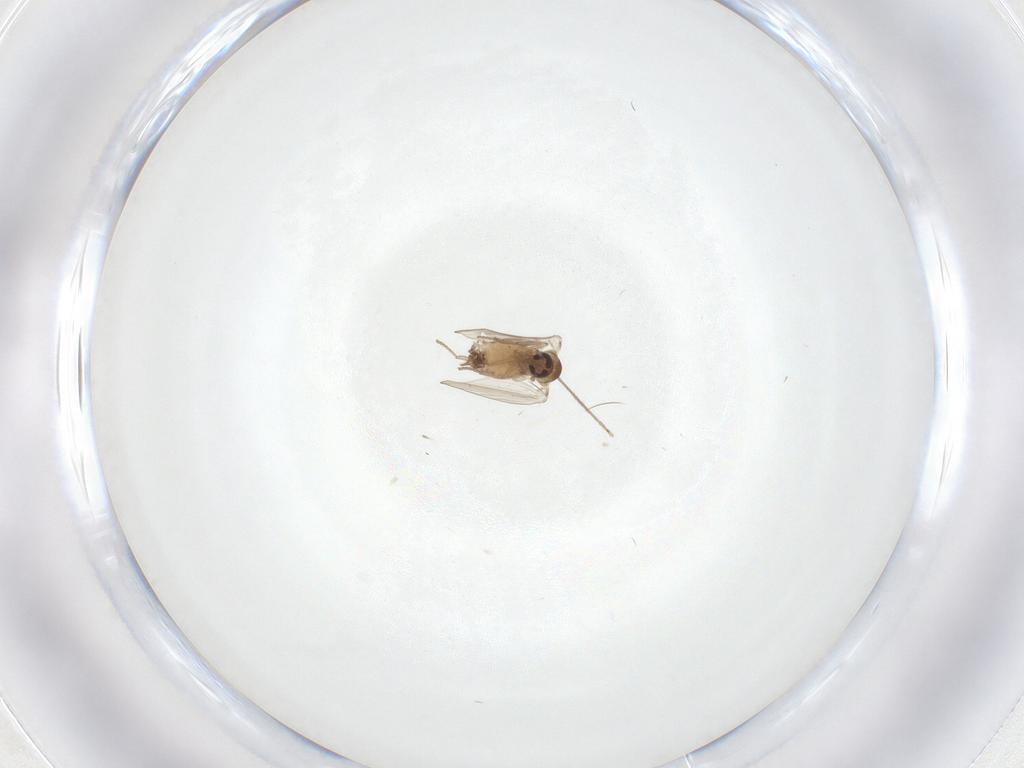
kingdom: Animalia
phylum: Arthropoda
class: Insecta
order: Diptera
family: Psychodidae
